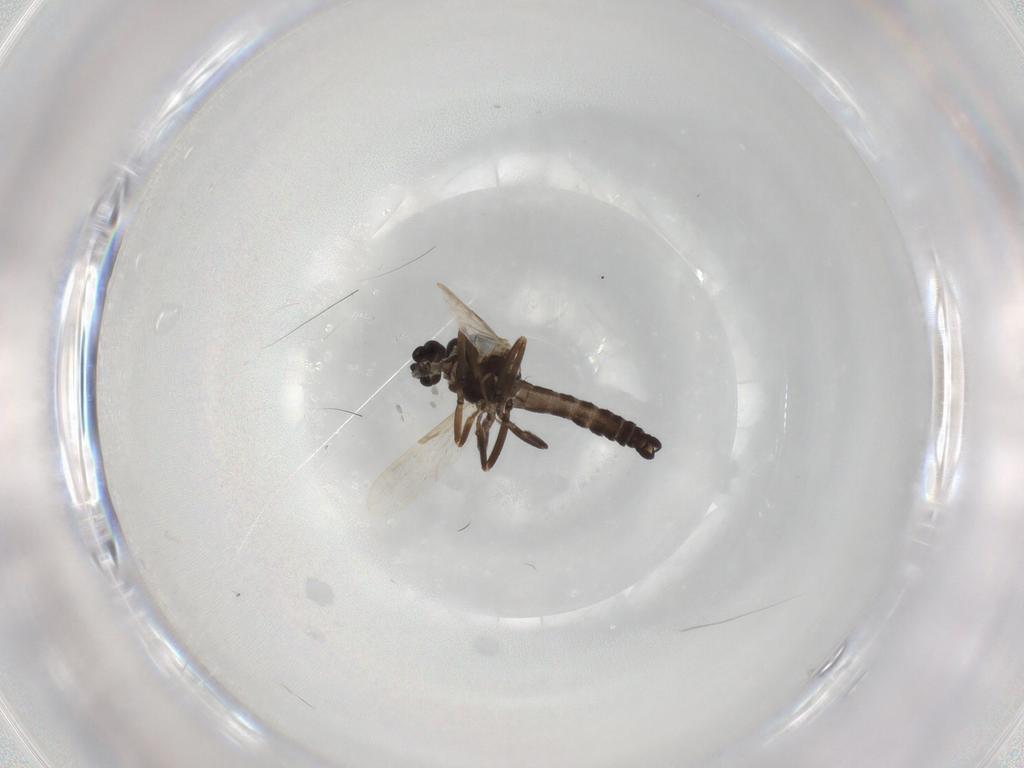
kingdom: Animalia
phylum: Arthropoda
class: Insecta
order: Diptera
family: Ceratopogonidae
